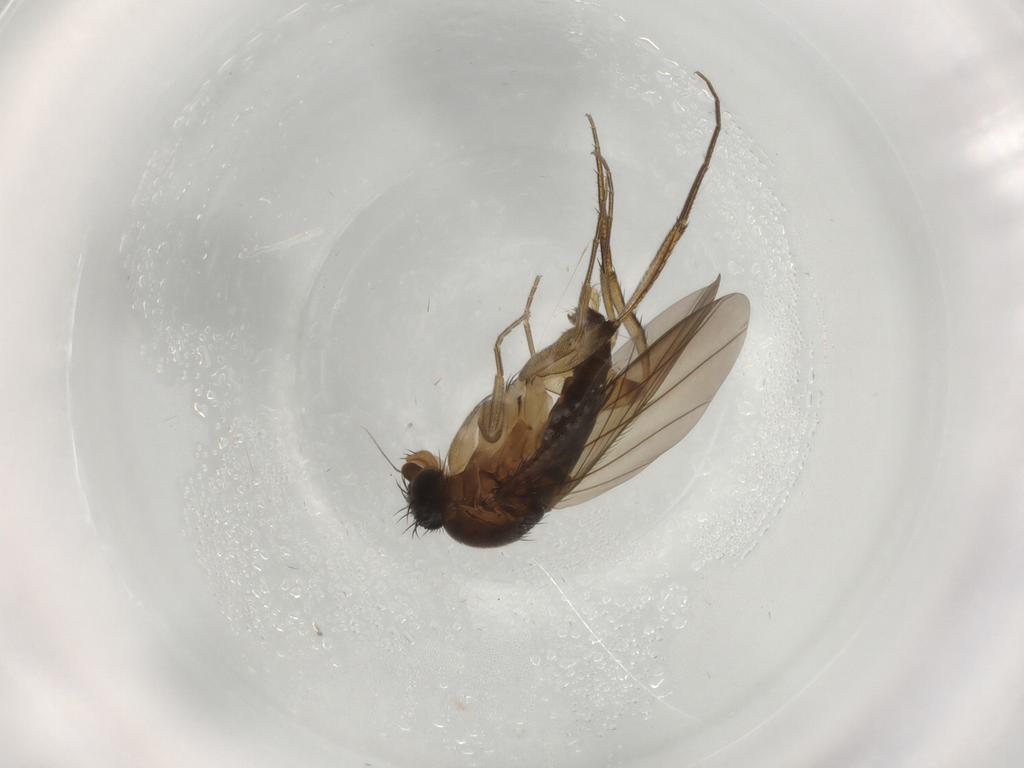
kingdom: Animalia
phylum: Arthropoda
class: Insecta
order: Diptera
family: Phoridae
